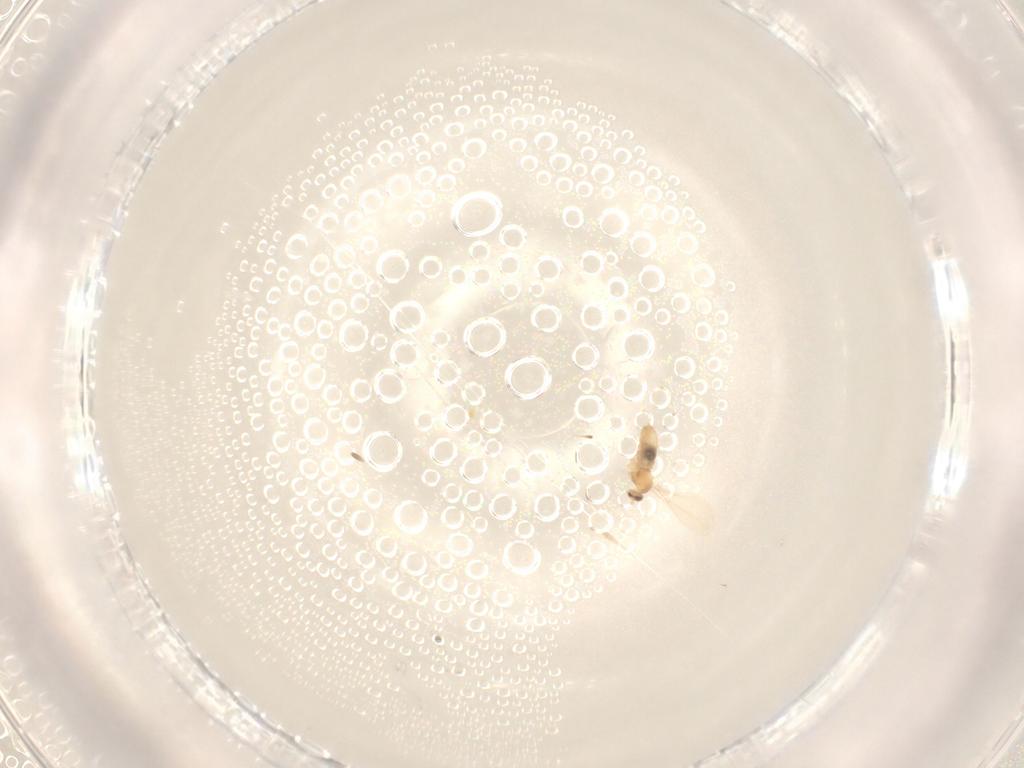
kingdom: Animalia
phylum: Arthropoda
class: Insecta
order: Diptera
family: Cecidomyiidae
